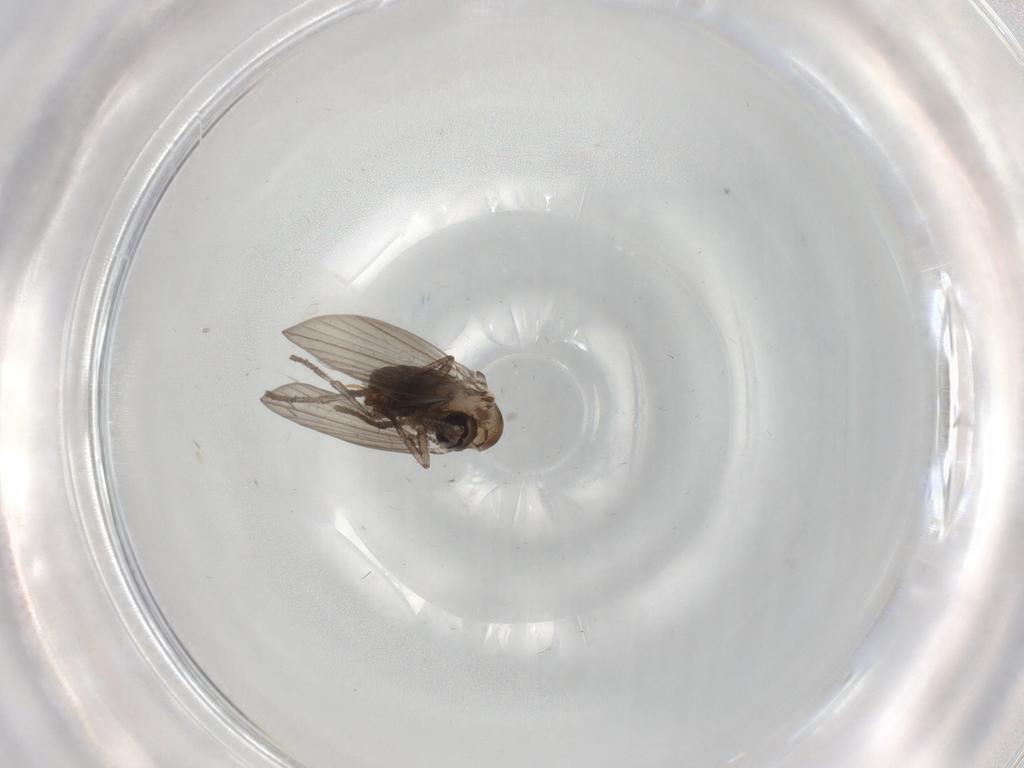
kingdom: Animalia
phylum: Arthropoda
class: Insecta
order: Diptera
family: Psychodidae
